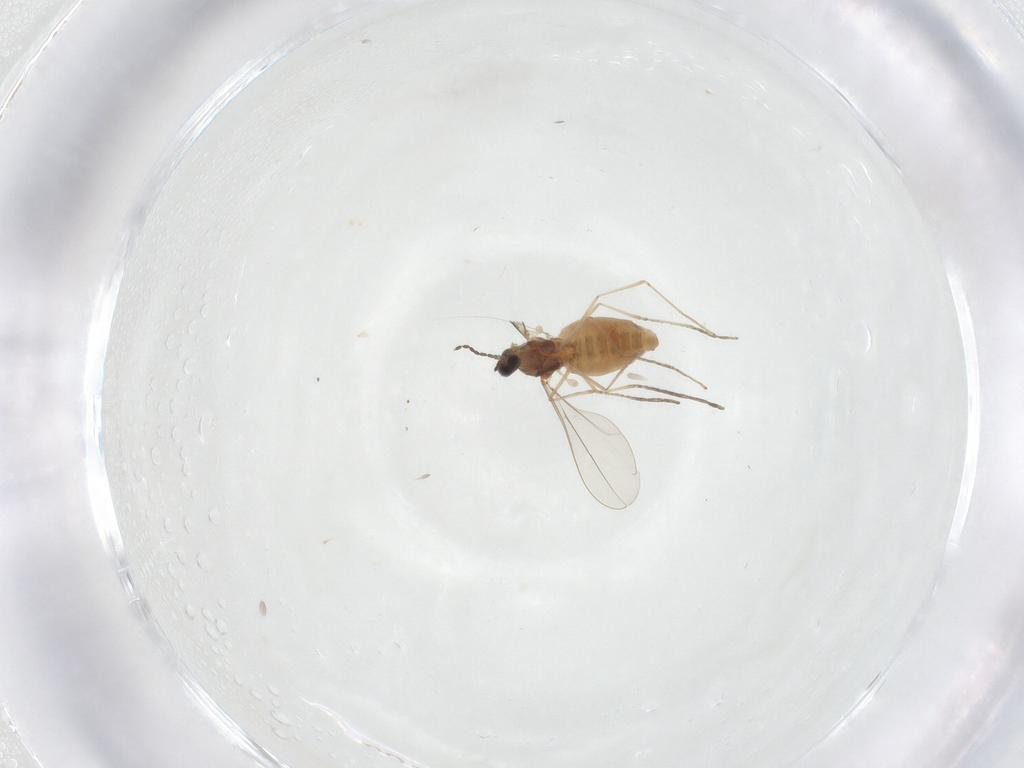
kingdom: Animalia
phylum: Arthropoda
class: Insecta
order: Diptera
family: Cecidomyiidae
